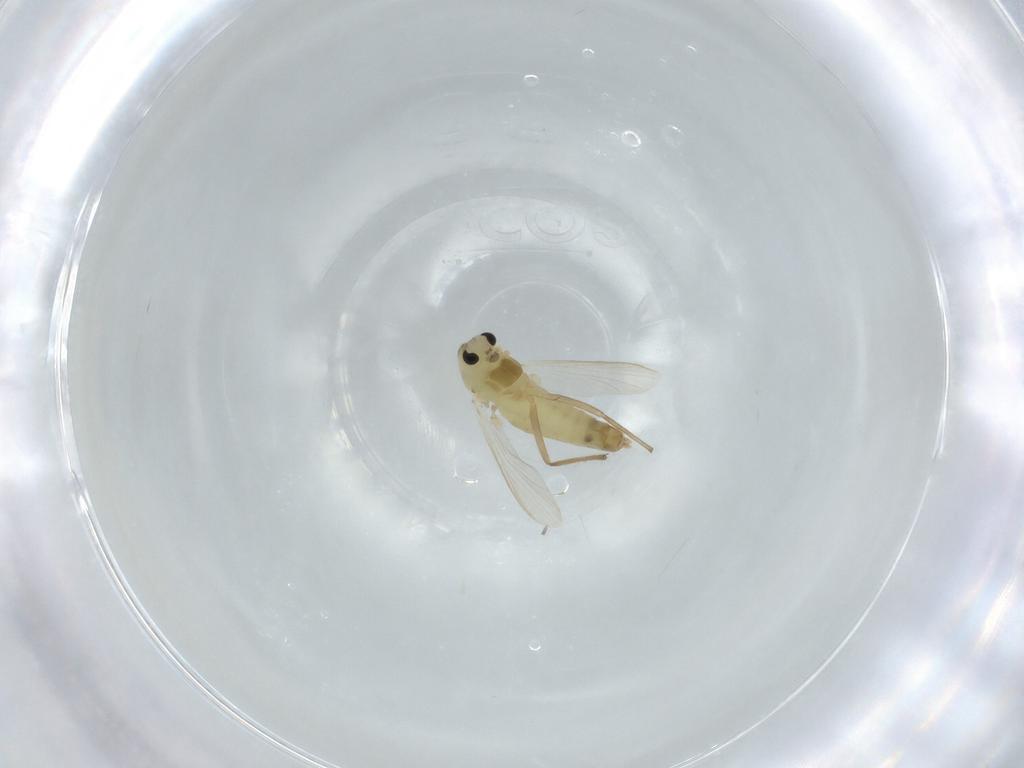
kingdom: Animalia
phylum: Arthropoda
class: Insecta
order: Diptera
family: Chironomidae
